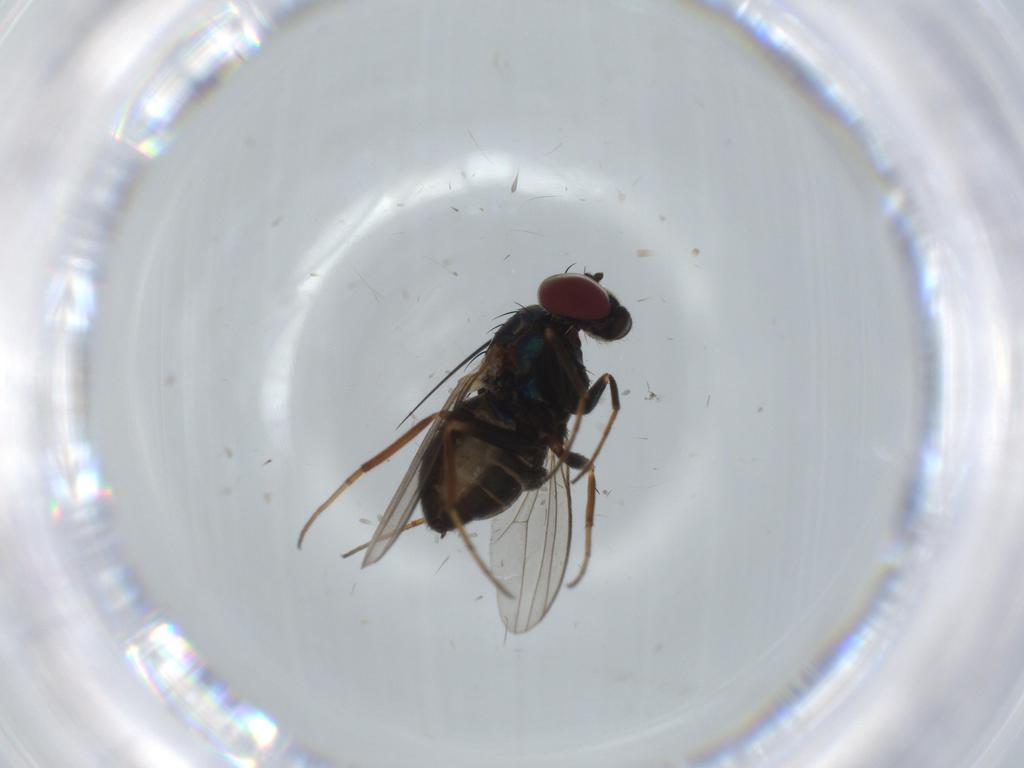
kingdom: Animalia
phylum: Arthropoda
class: Insecta
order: Diptera
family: Dolichopodidae
